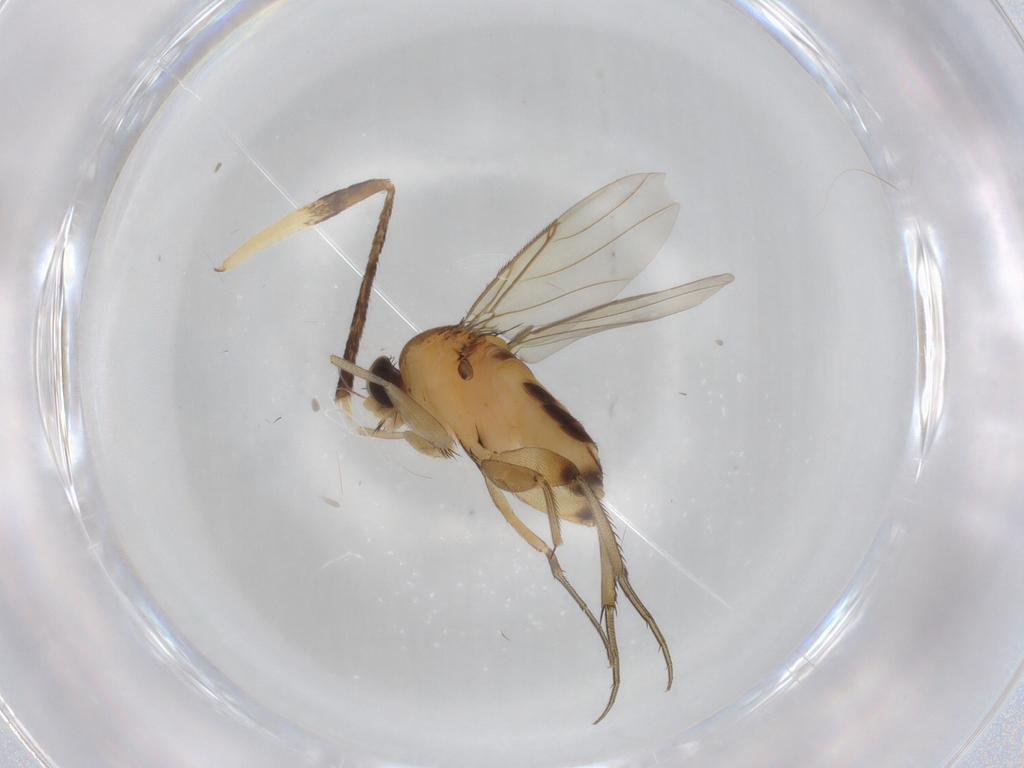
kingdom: Animalia
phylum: Arthropoda
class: Insecta
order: Diptera
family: Culicidae
